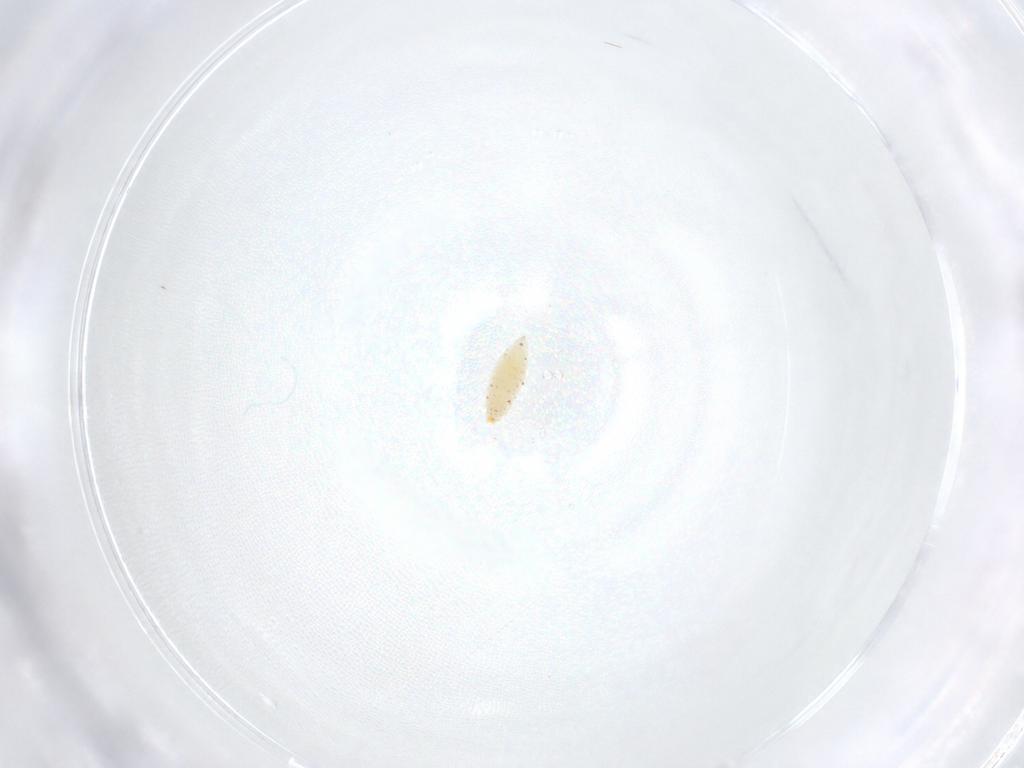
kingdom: Animalia
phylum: Arthropoda
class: Insecta
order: Diptera
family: Cecidomyiidae
